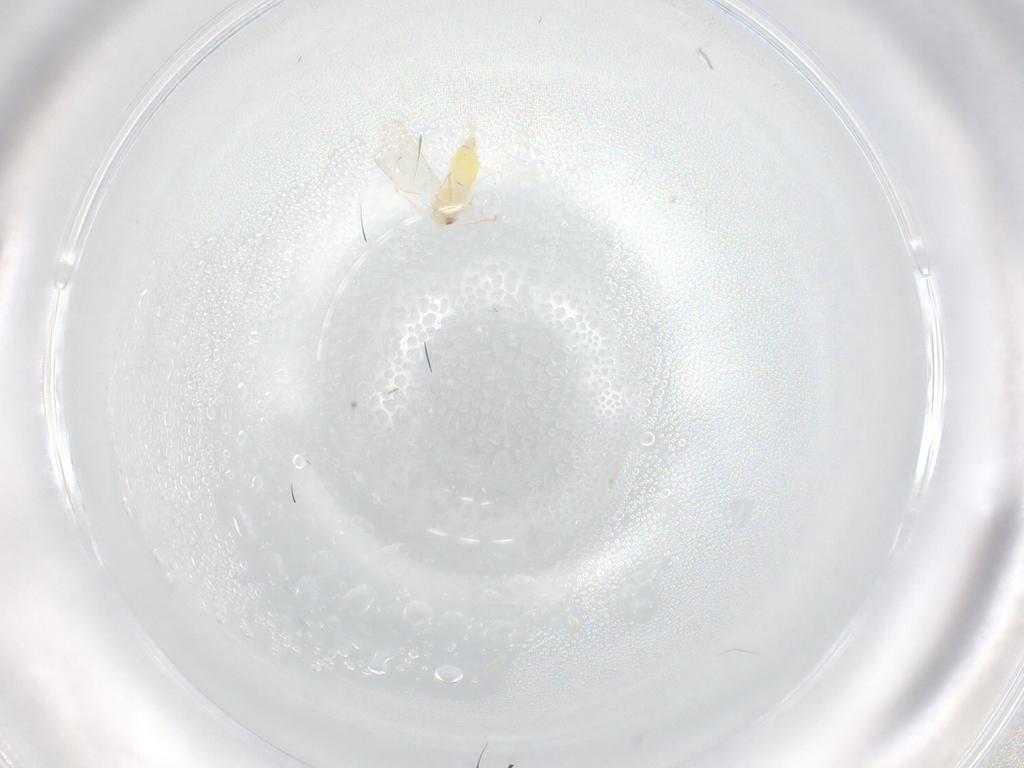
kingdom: Animalia
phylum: Arthropoda
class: Insecta
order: Hemiptera
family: Aleyrodidae
